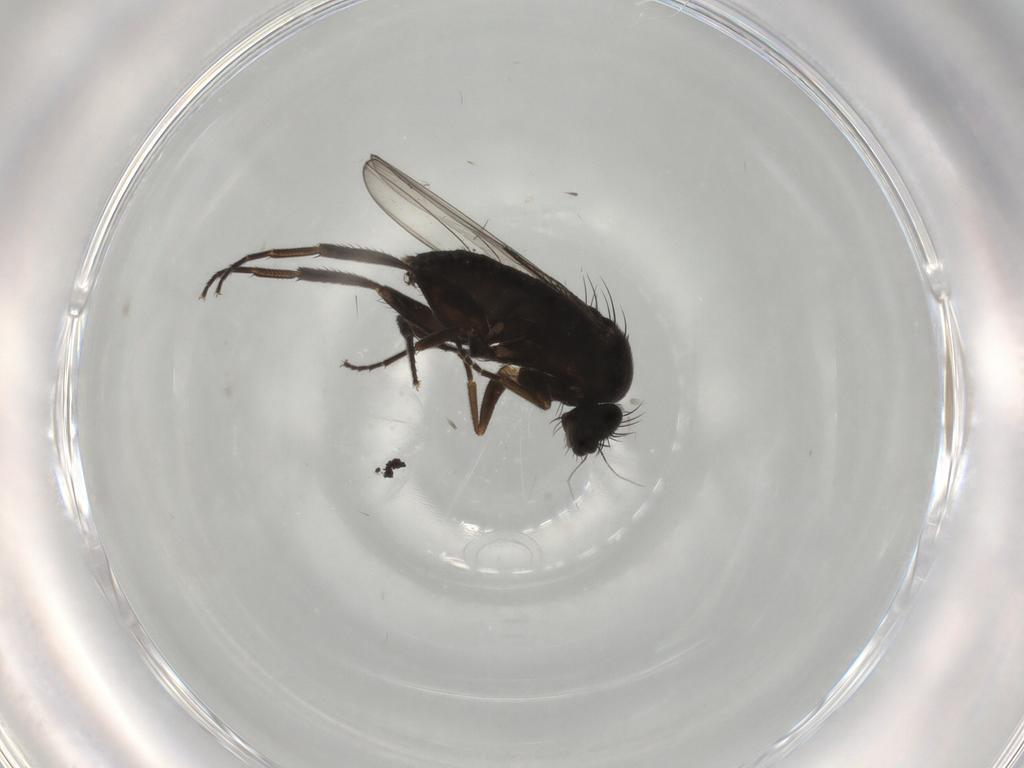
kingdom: Animalia
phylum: Arthropoda
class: Insecta
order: Diptera
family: Phoridae
